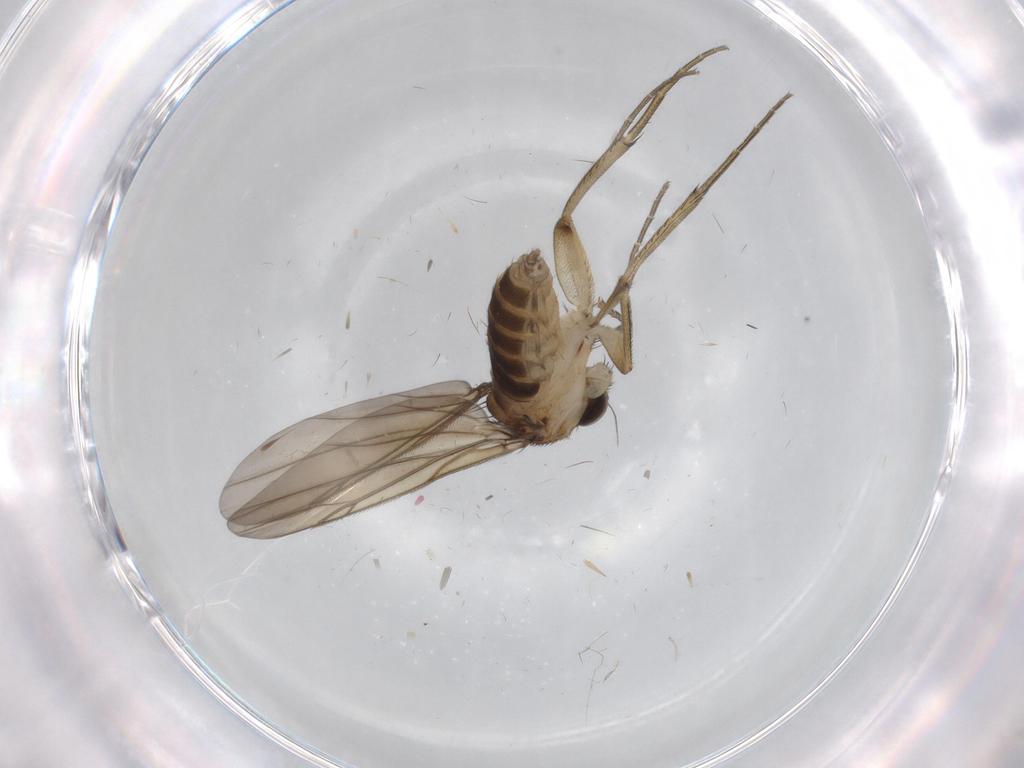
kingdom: Animalia
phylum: Arthropoda
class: Insecta
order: Diptera
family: Phoridae
